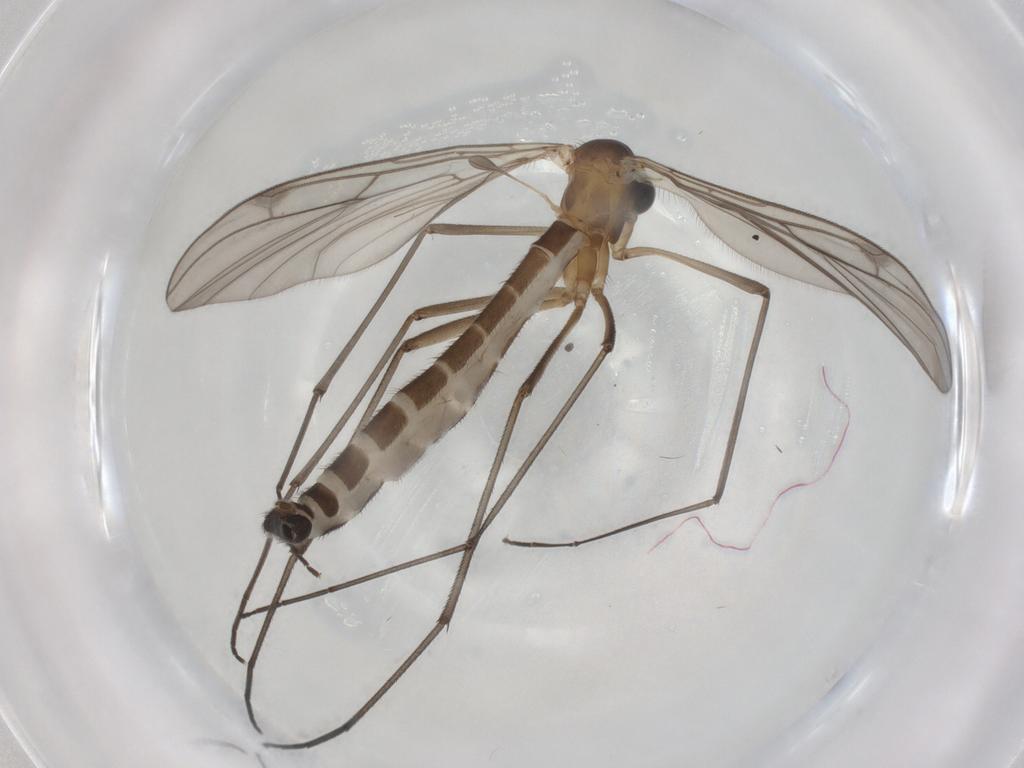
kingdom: Animalia
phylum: Arthropoda
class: Insecta
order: Diptera
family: Bolitophilidae
